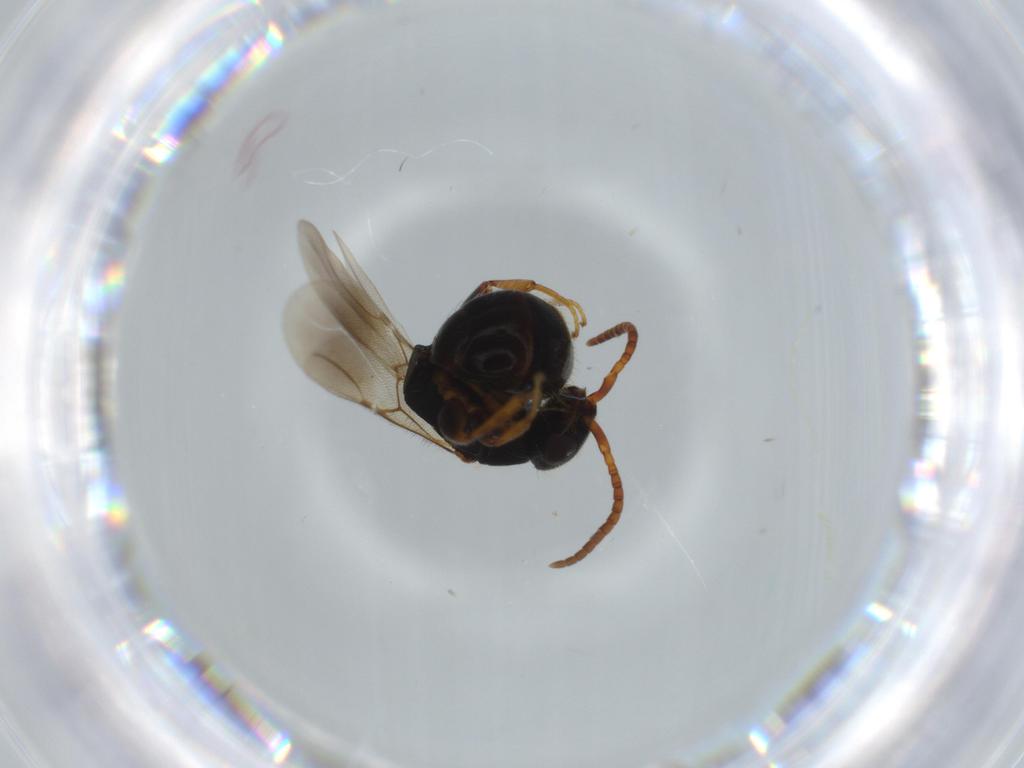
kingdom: Animalia
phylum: Arthropoda
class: Insecta
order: Hymenoptera
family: Bethylidae
